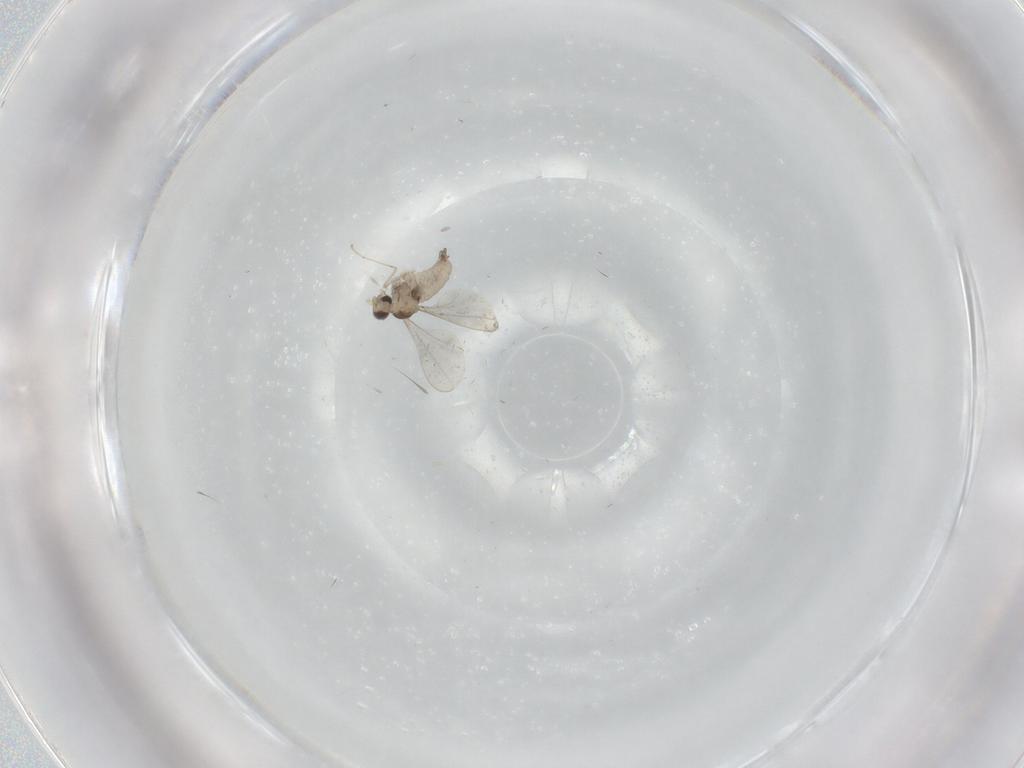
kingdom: Animalia
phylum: Arthropoda
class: Insecta
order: Diptera
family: Cecidomyiidae
